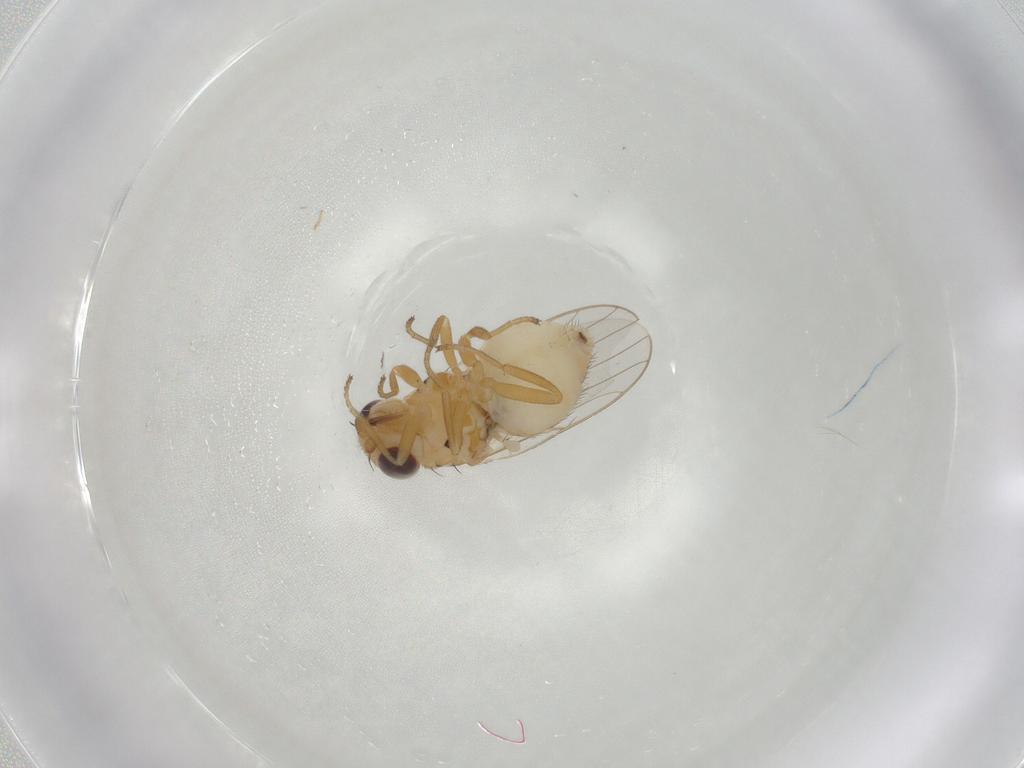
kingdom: Animalia
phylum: Arthropoda
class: Insecta
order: Diptera
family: Chloropidae
